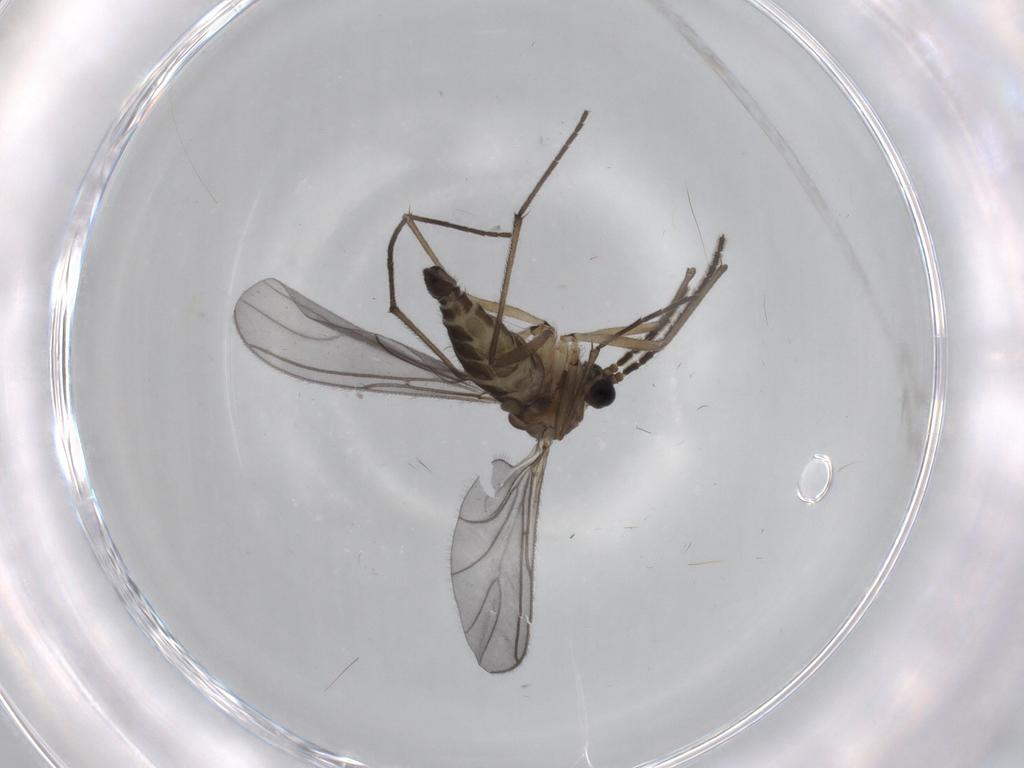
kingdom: Animalia
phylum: Arthropoda
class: Insecta
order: Diptera
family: Sciaridae
